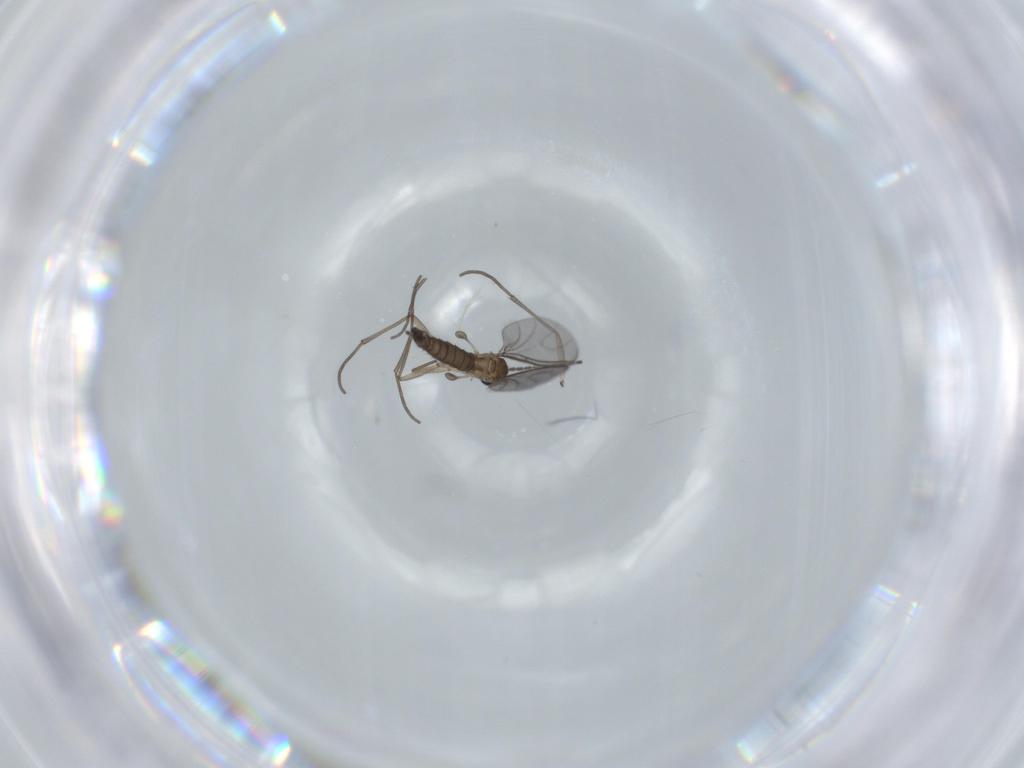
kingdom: Animalia
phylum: Arthropoda
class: Insecta
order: Diptera
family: Sciaridae
